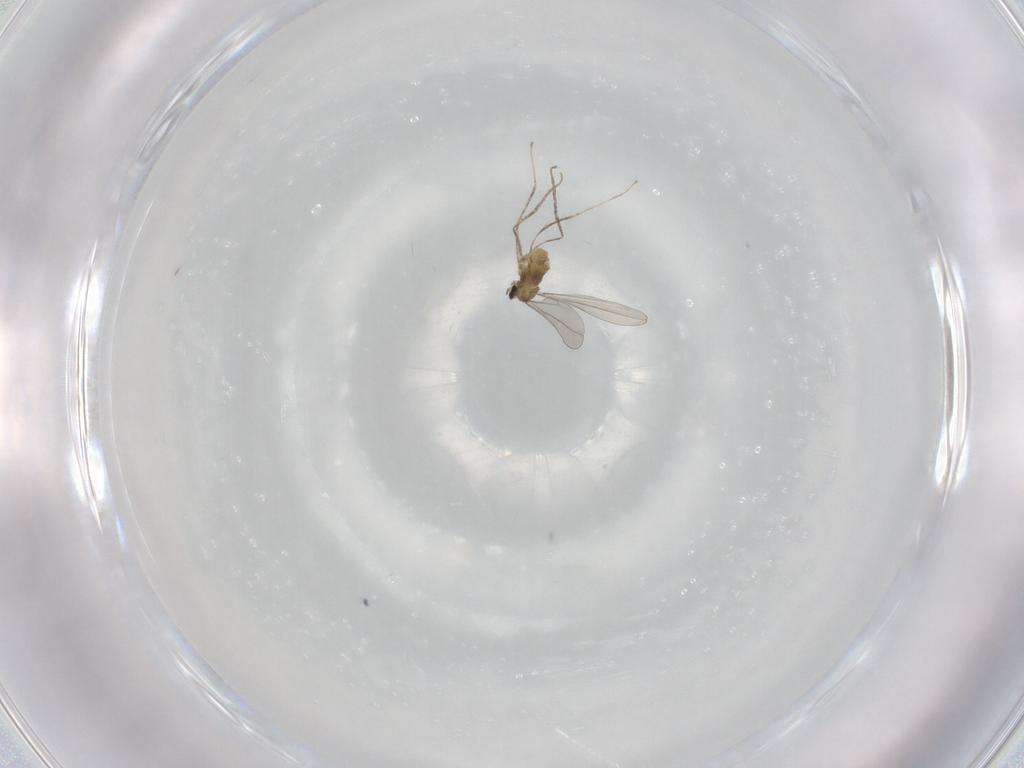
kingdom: Animalia
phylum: Arthropoda
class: Insecta
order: Diptera
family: Cecidomyiidae
